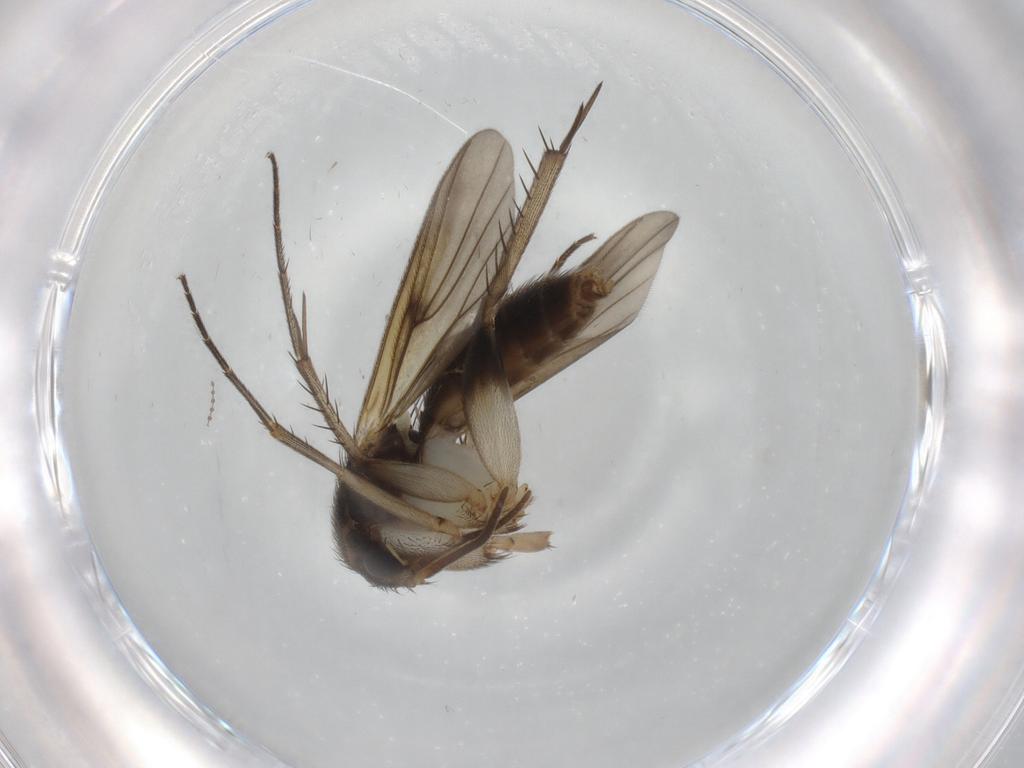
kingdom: Animalia
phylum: Arthropoda
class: Insecta
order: Diptera
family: Mycetophilidae
